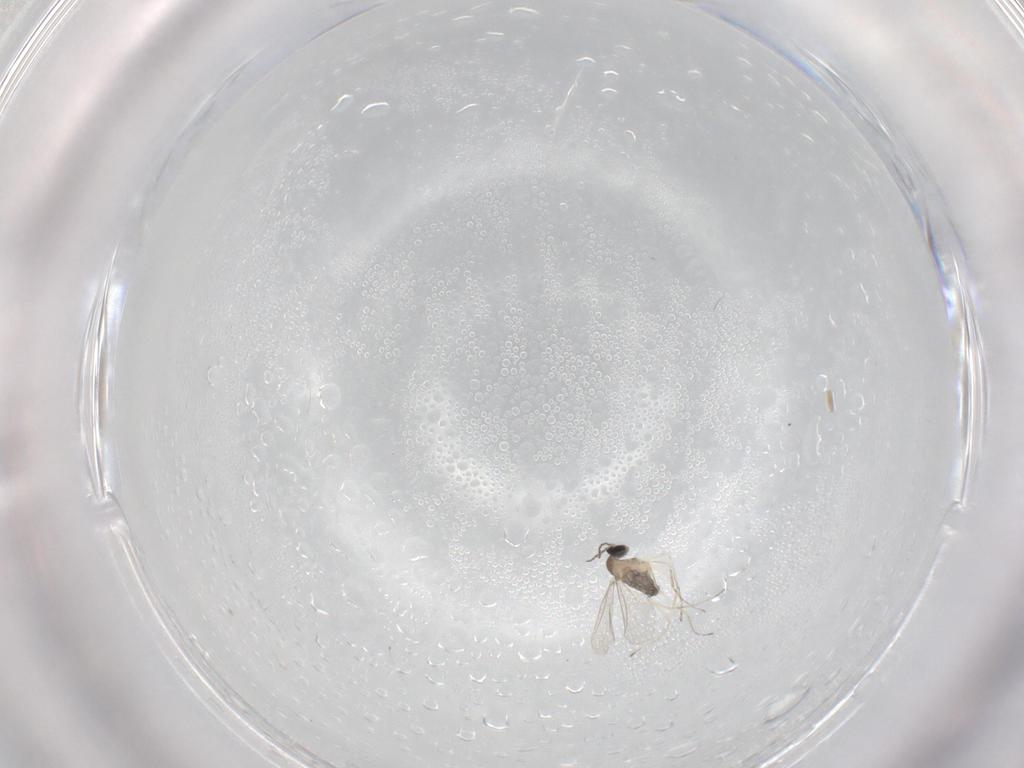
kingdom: Animalia
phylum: Arthropoda
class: Insecta
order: Diptera
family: Cecidomyiidae
